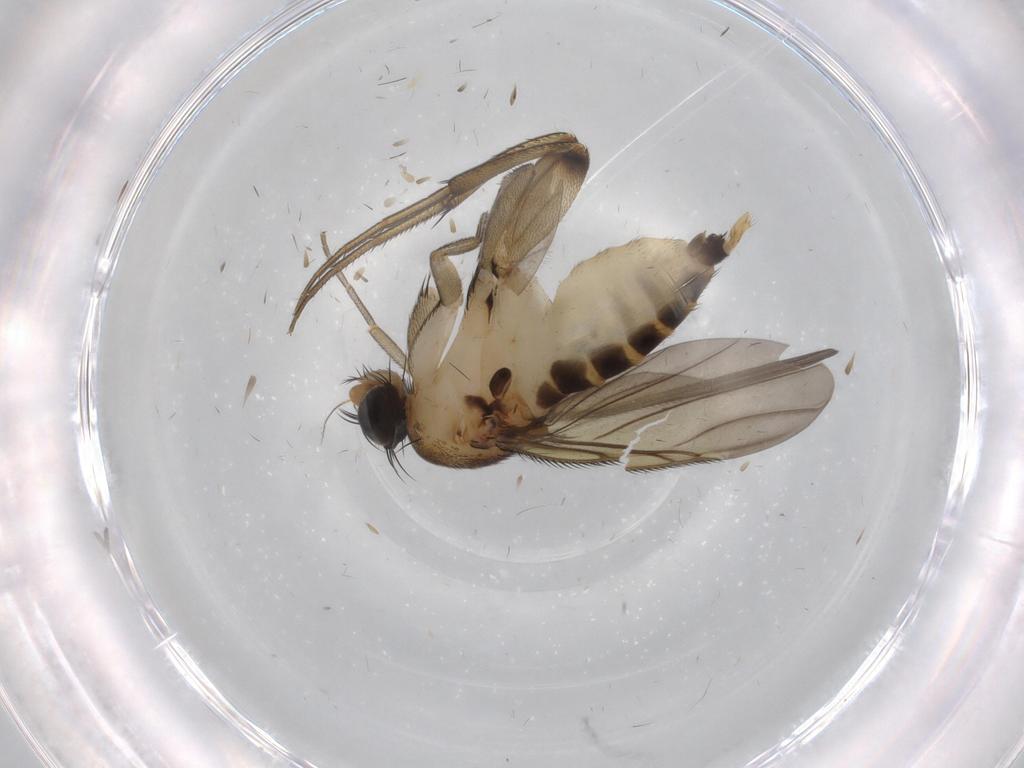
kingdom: Animalia
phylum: Arthropoda
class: Insecta
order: Diptera
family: Phoridae
